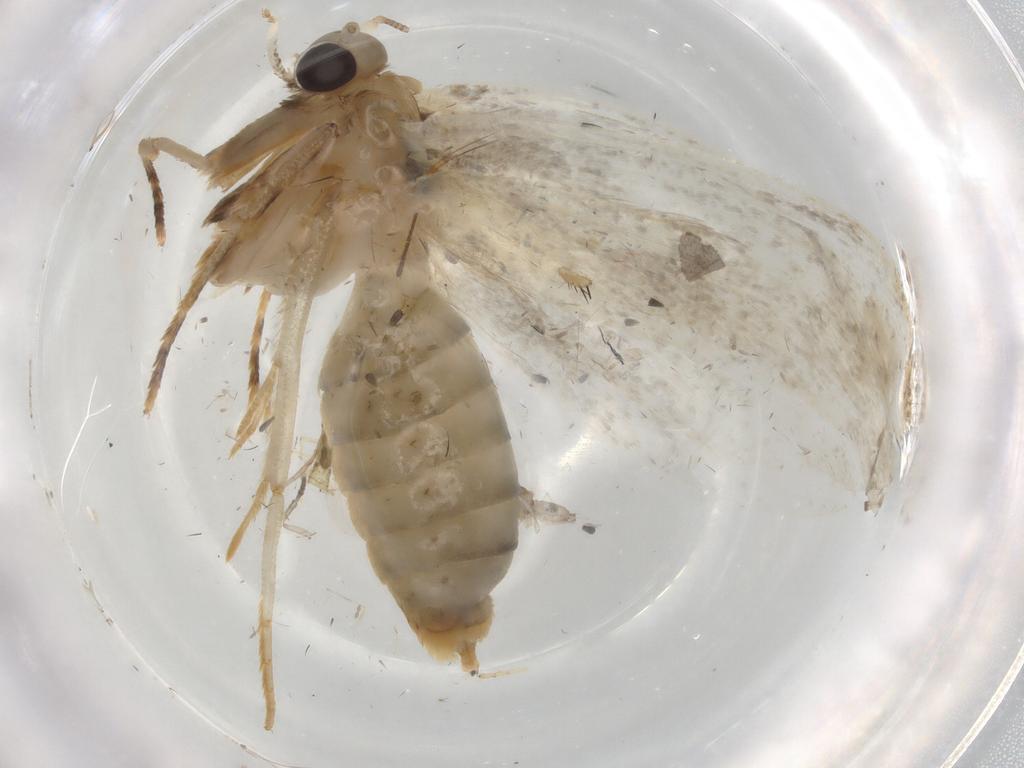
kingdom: Animalia
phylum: Arthropoda
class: Insecta
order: Lepidoptera
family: Tineidae
